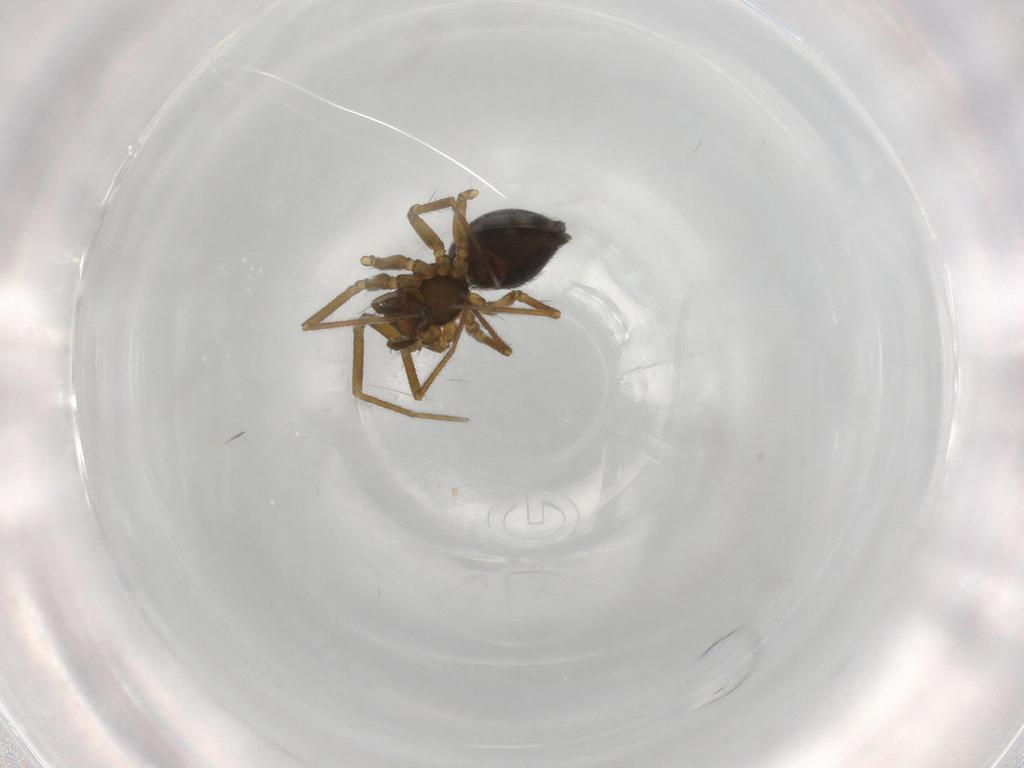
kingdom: Animalia
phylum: Arthropoda
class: Arachnida
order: Araneae
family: Linyphiidae
